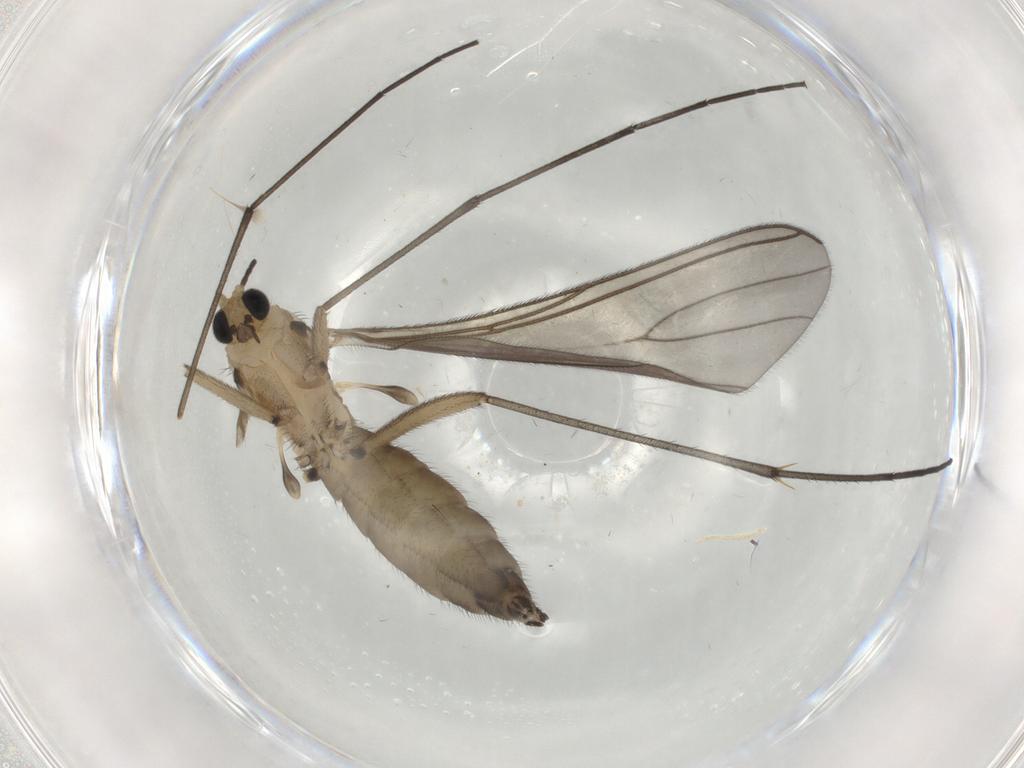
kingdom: Animalia
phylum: Arthropoda
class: Insecta
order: Diptera
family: Sciaridae
